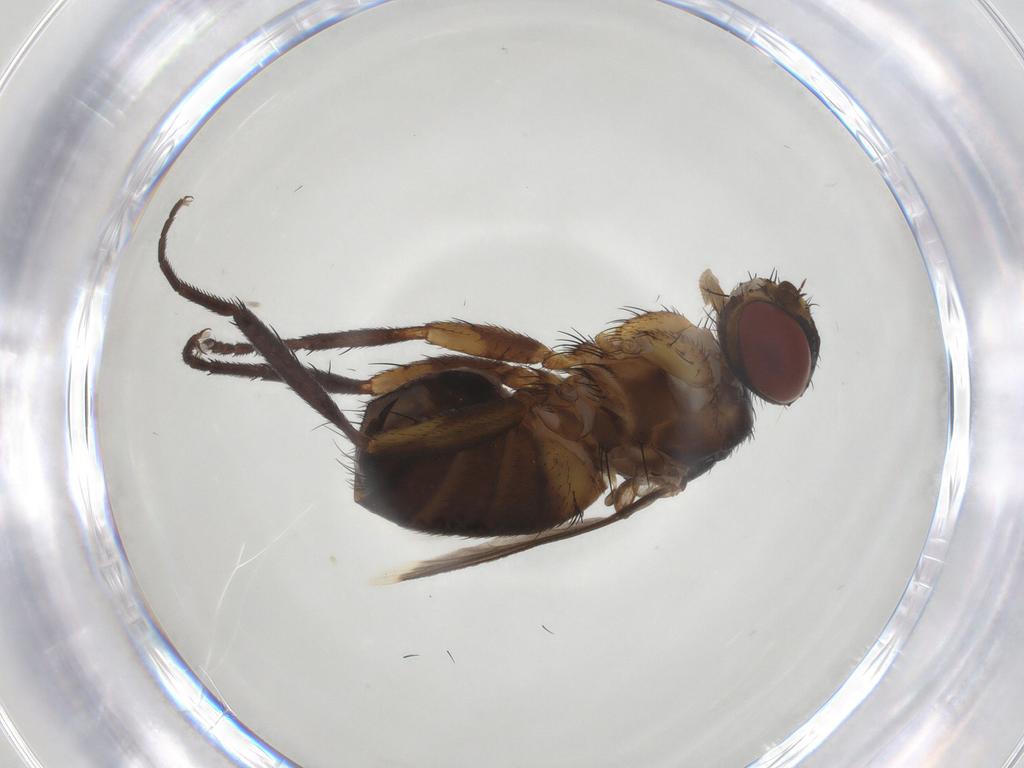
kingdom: Animalia
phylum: Arthropoda
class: Insecta
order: Diptera
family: Tachinidae
